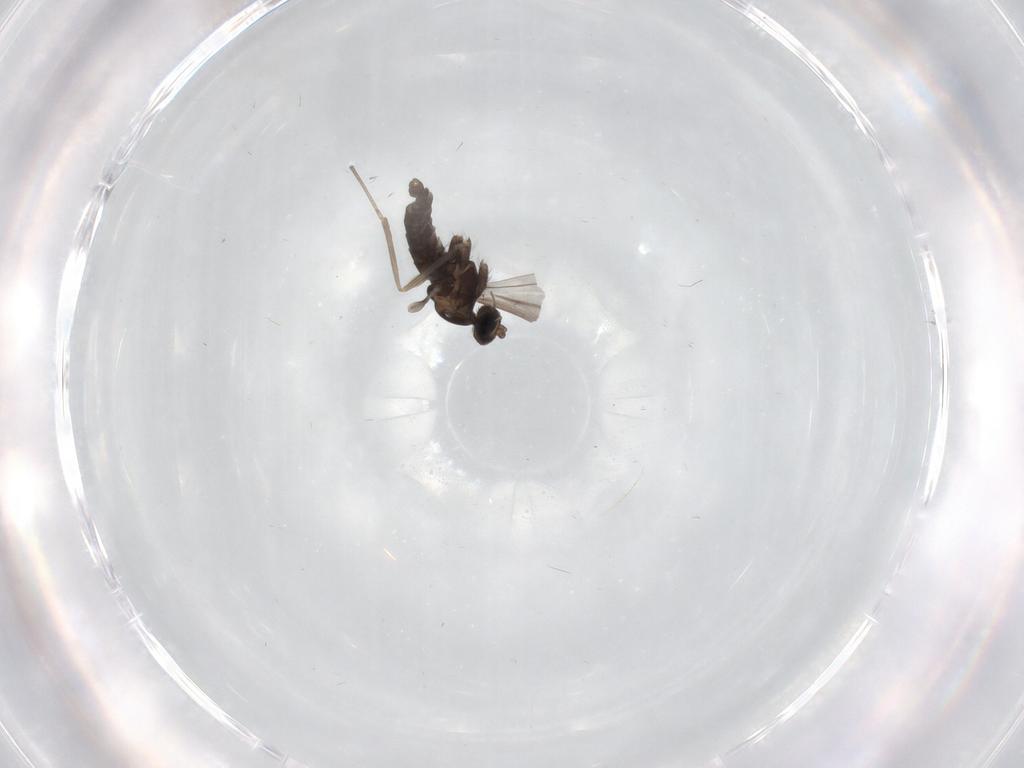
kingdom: Animalia
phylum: Arthropoda
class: Insecta
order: Diptera
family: Cecidomyiidae
